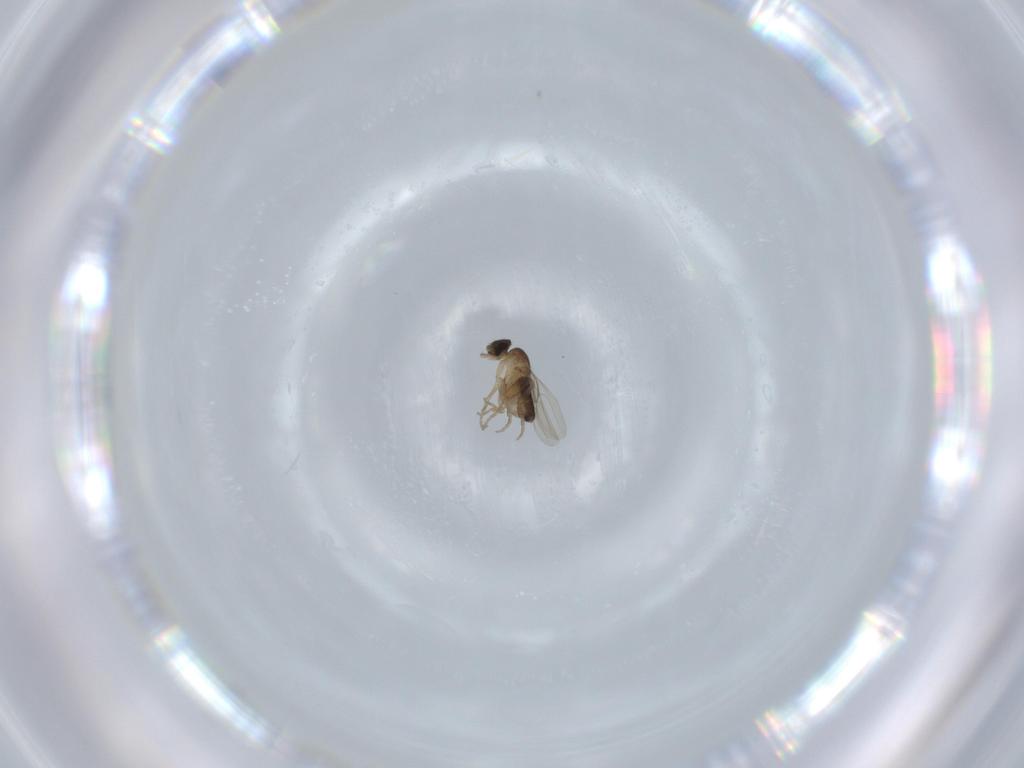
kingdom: Animalia
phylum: Arthropoda
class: Insecta
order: Diptera
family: Phoridae
